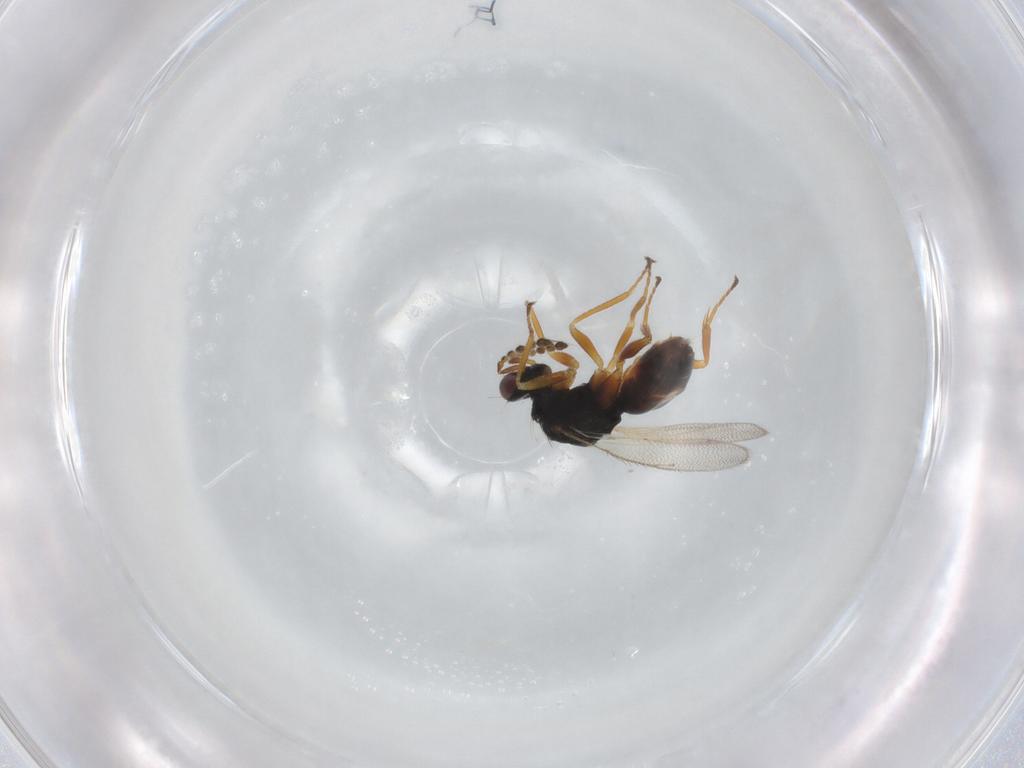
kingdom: Animalia
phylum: Arthropoda
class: Insecta
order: Hymenoptera
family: Eulophidae
